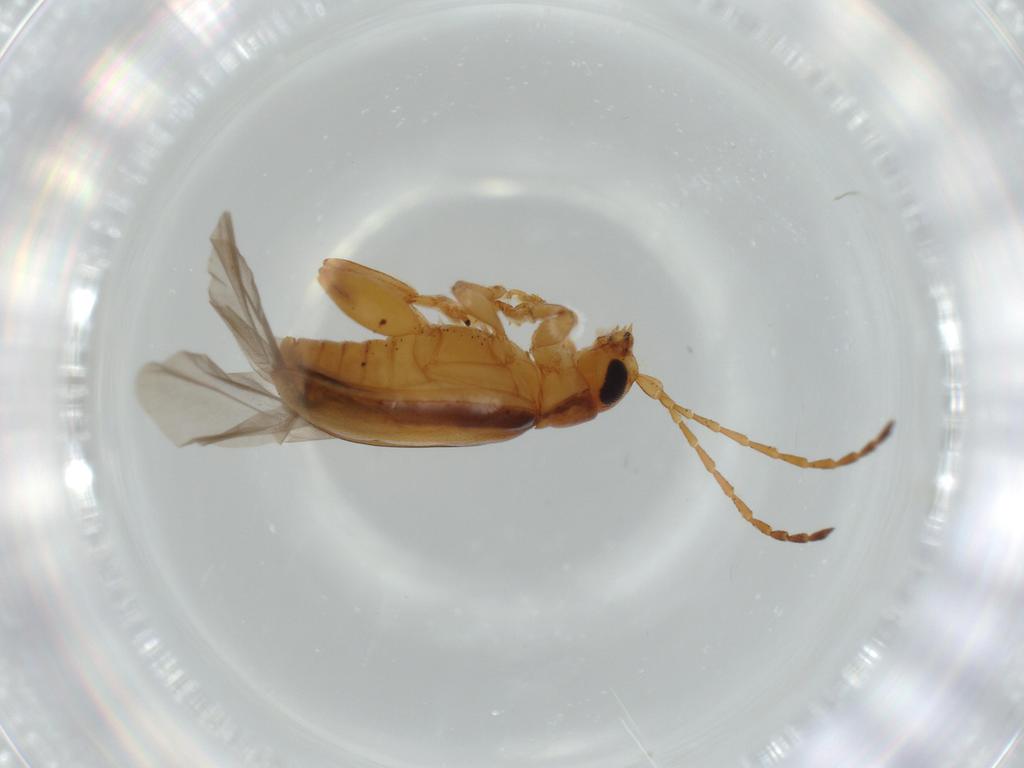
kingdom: Animalia
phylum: Arthropoda
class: Insecta
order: Coleoptera
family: Chrysomelidae
